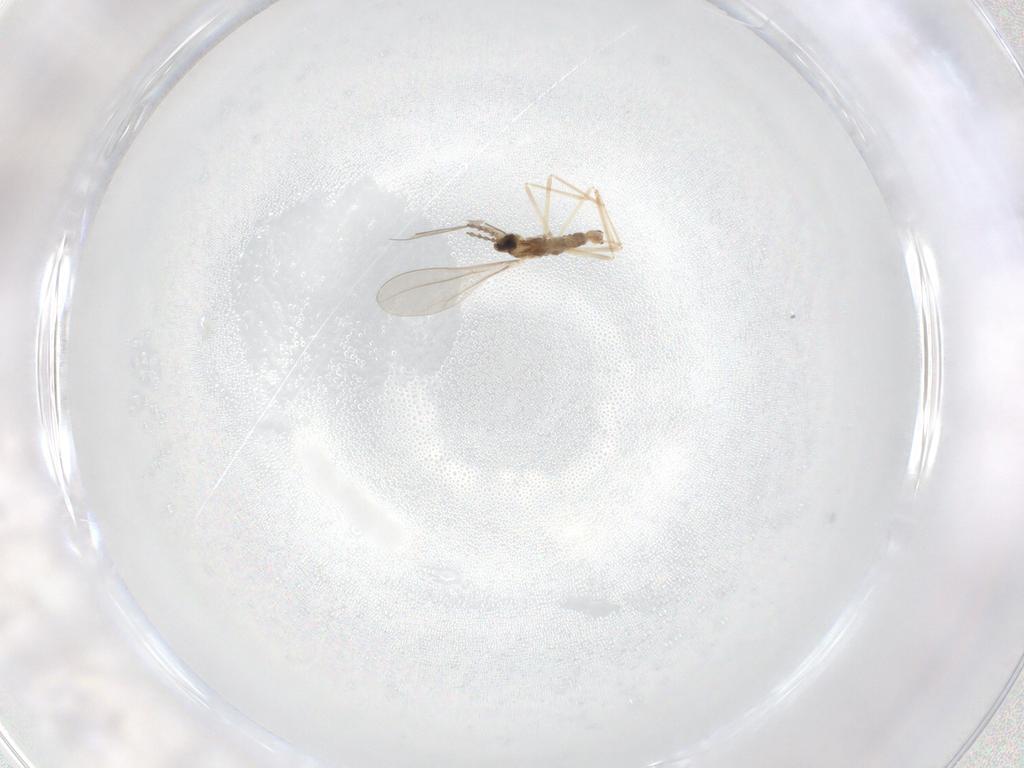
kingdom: Animalia
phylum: Arthropoda
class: Insecta
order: Diptera
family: Cecidomyiidae
